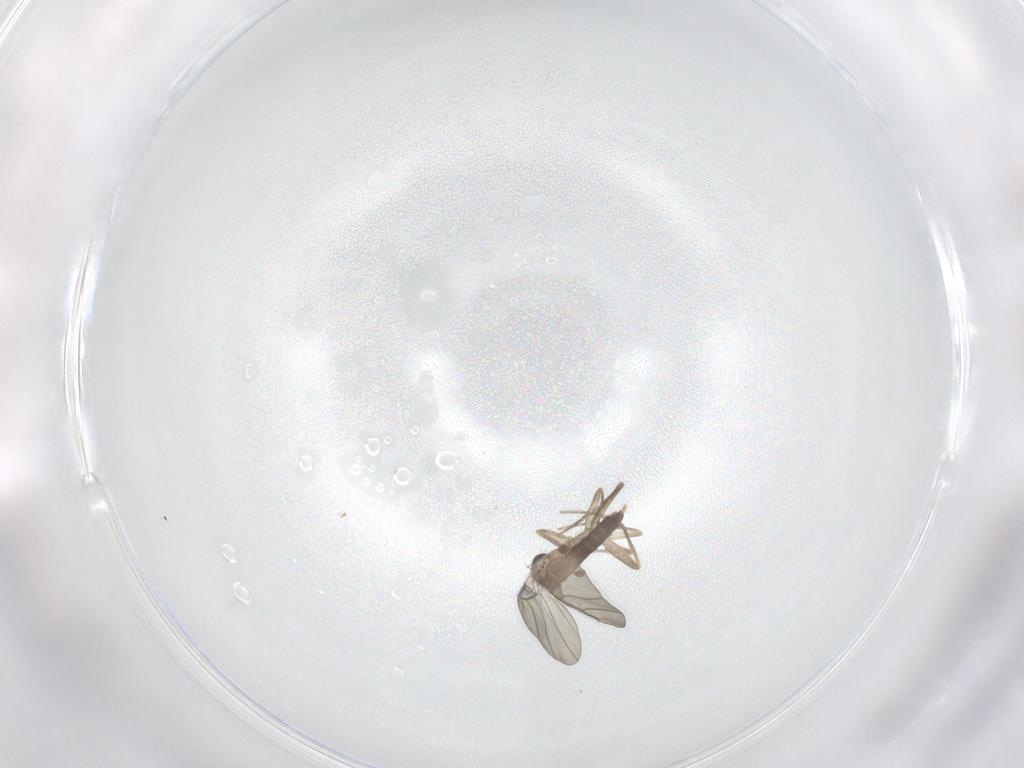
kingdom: Animalia
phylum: Arthropoda
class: Insecta
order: Diptera
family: Phoridae
